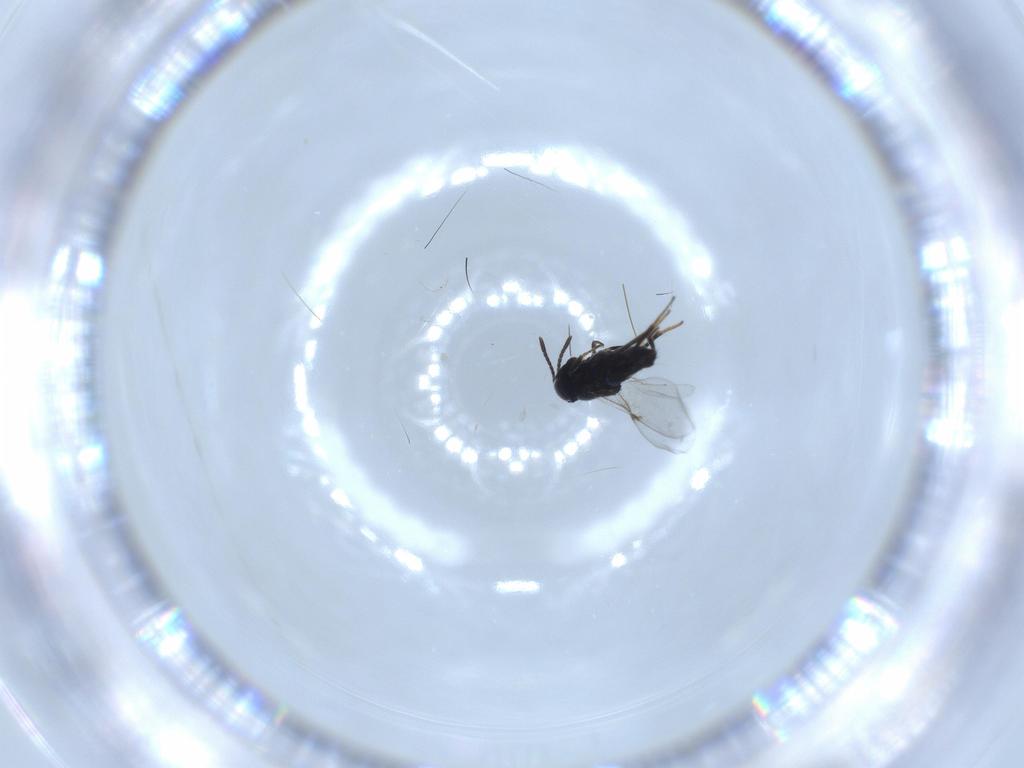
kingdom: Animalia
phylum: Arthropoda
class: Insecta
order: Hymenoptera
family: Encyrtidae
